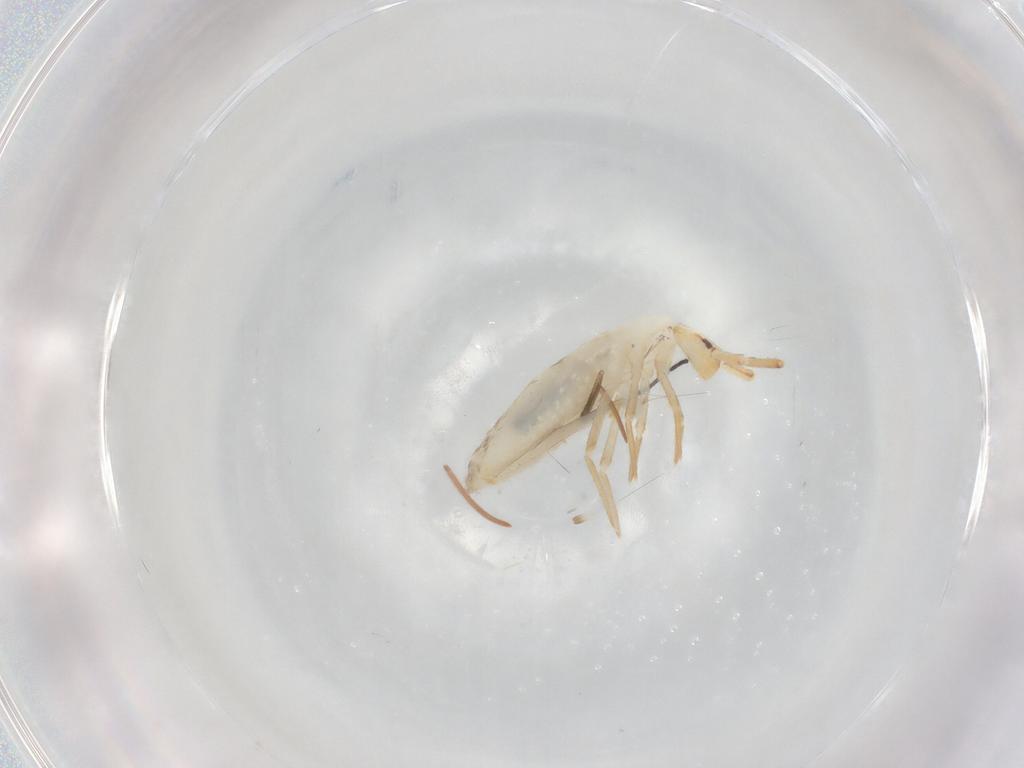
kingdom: Animalia
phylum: Arthropoda
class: Collembola
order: Entomobryomorpha
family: Entomobryidae
